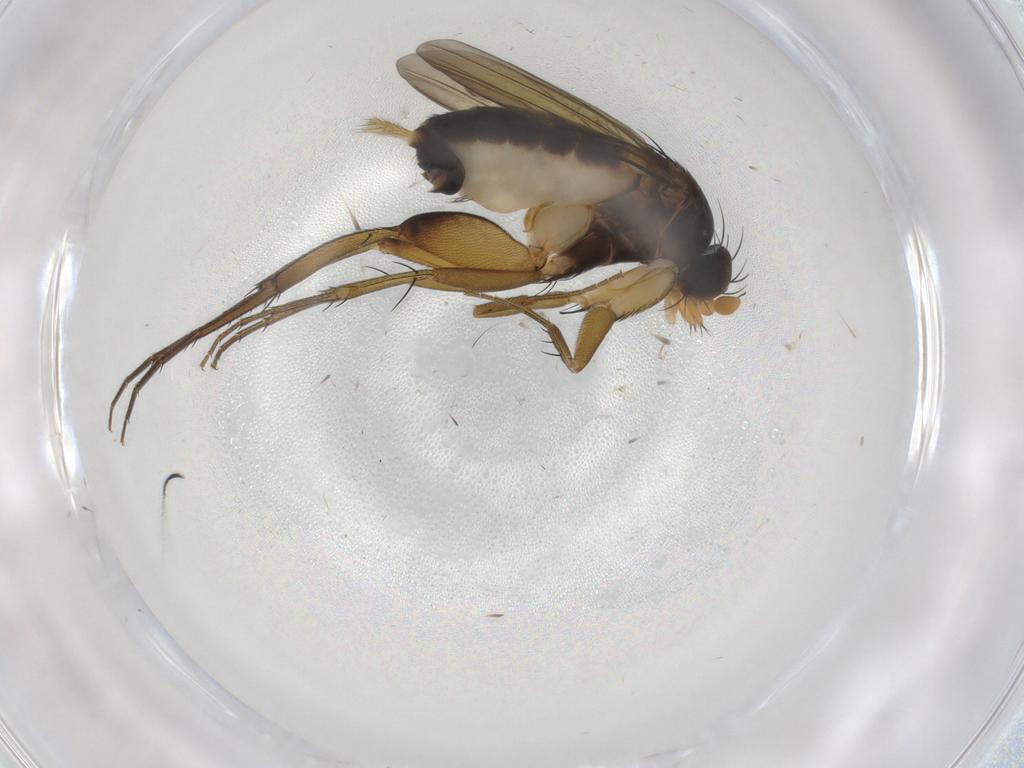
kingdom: Animalia
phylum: Arthropoda
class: Insecta
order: Diptera
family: Phoridae
